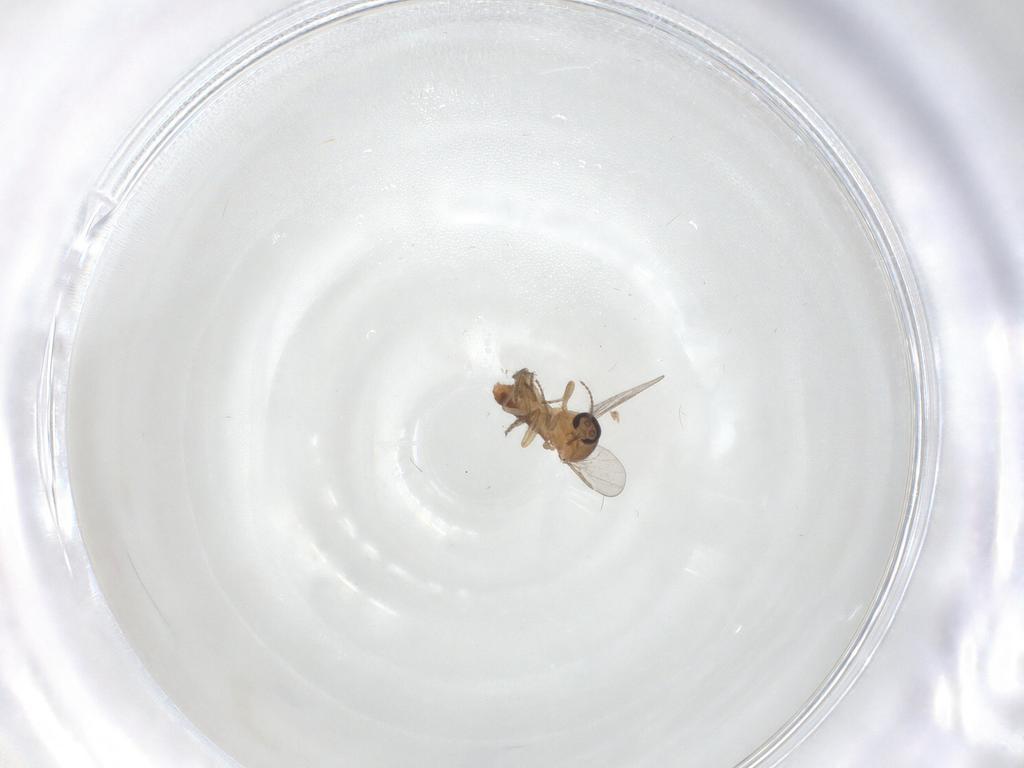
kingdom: Animalia
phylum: Arthropoda
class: Insecta
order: Diptera
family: Ceratopogonidae
